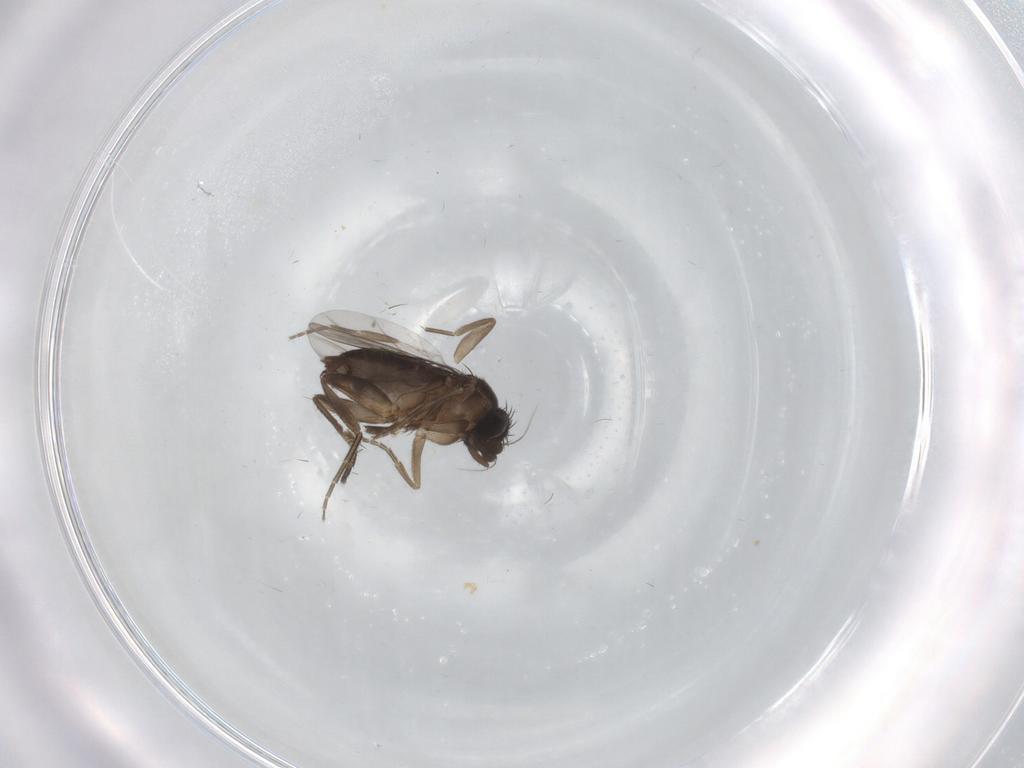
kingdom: Animalia
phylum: Arthropoda
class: Insecta
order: Diptera
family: Phoridae
